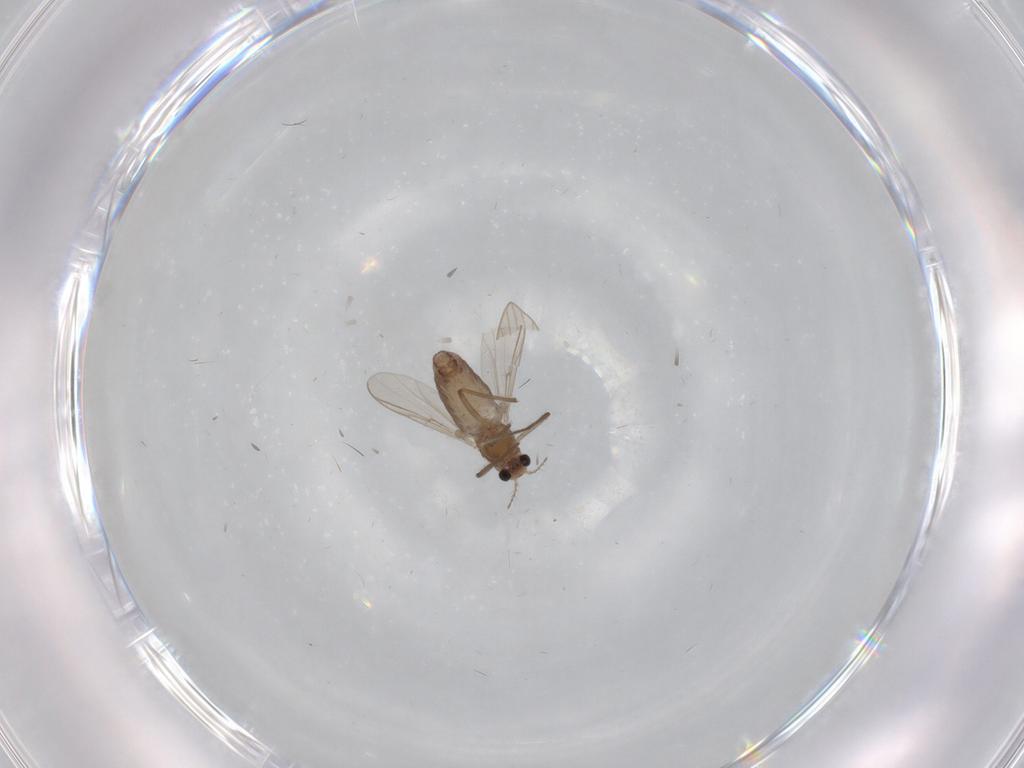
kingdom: Animalia
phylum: Arthropoda
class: Insecta
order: Diptera
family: Chironomidae
